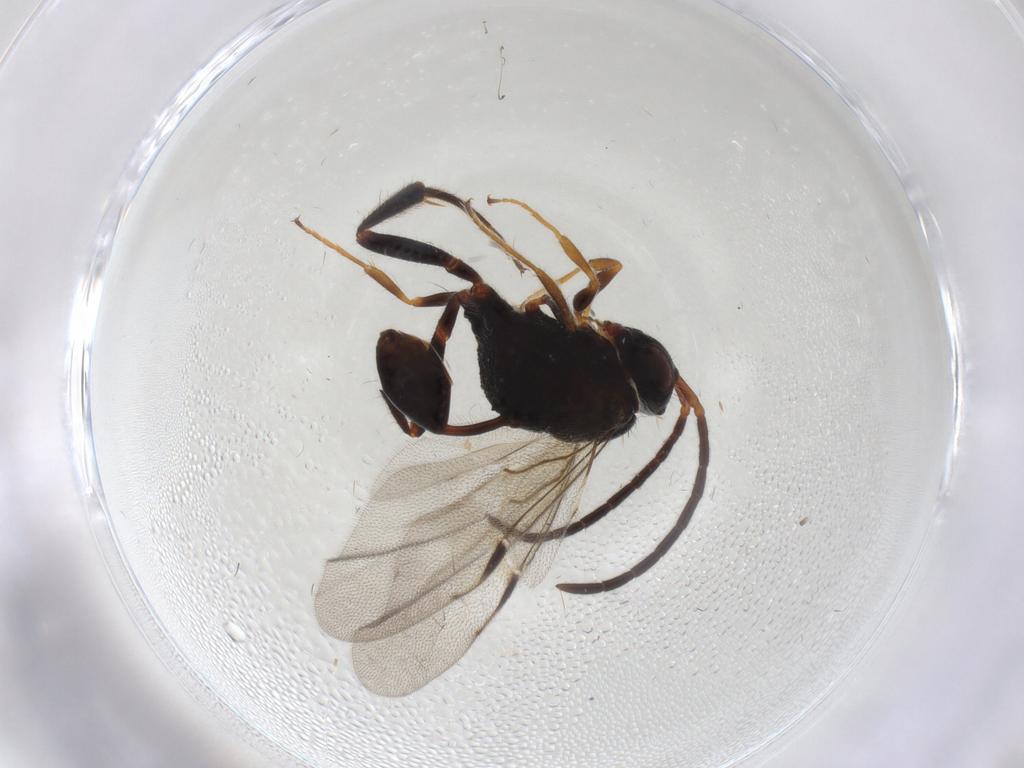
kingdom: Animalia
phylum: Arthropoda
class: Insecta
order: Hymenoptera
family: Evaniidae
